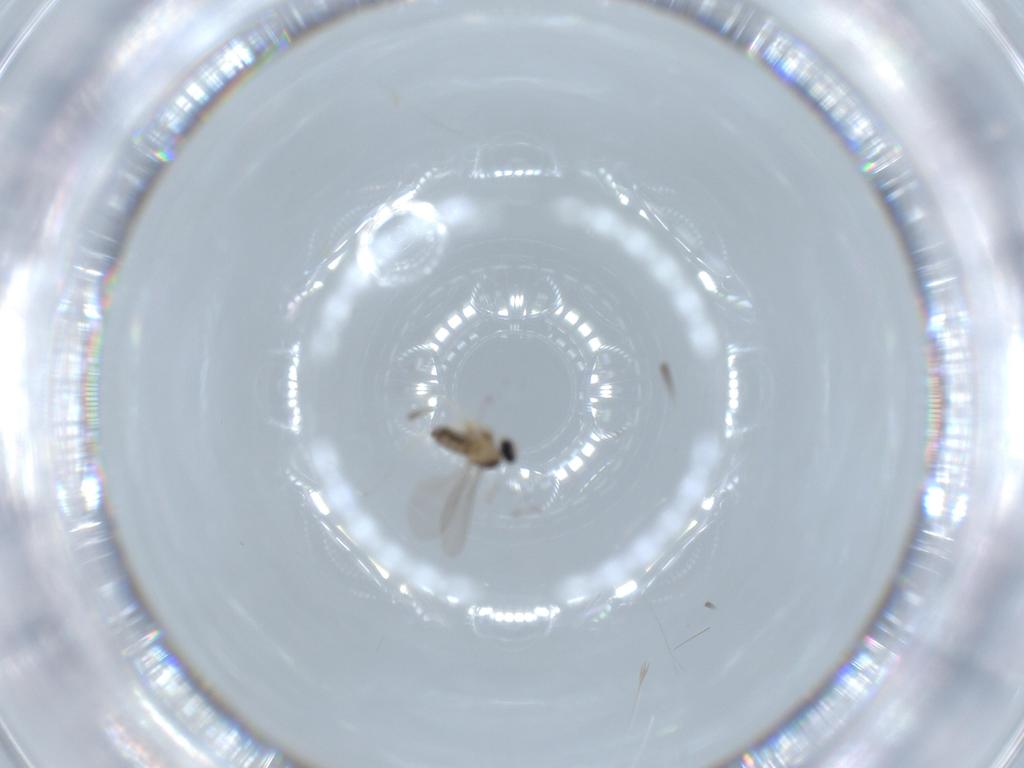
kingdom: Animalia
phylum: Arthropoda
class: Insecta
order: Diptera
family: Cecidomyiidae
